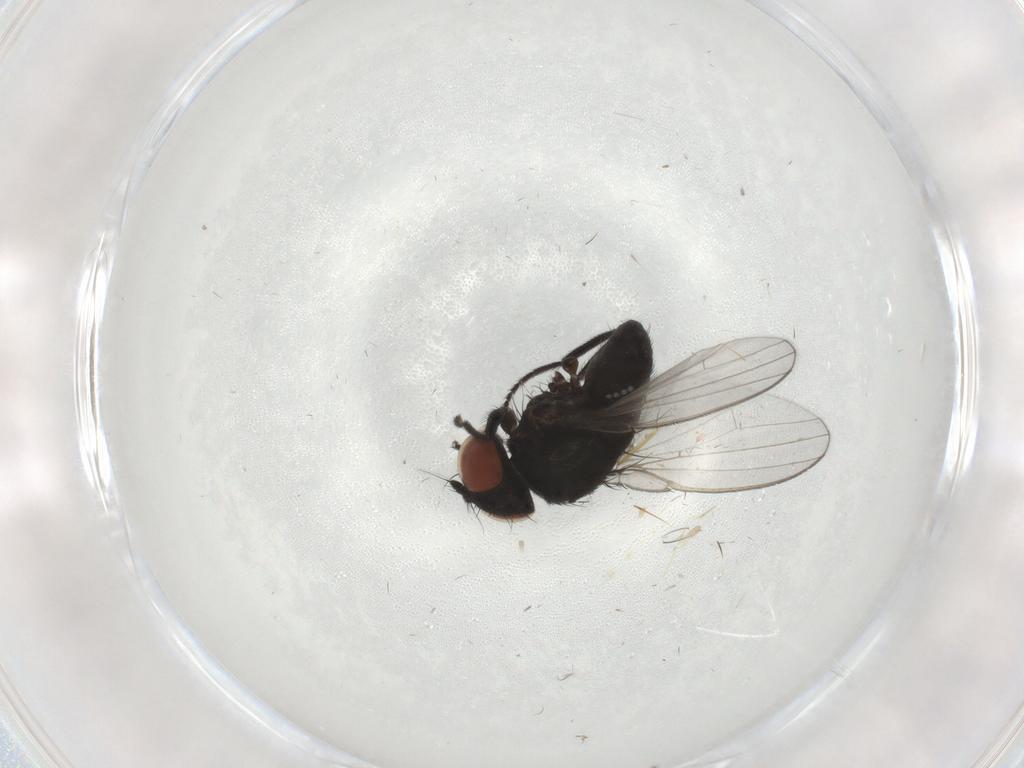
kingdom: Animalia
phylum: Arthropoda
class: Insecta
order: Diptera
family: Milichiidae
